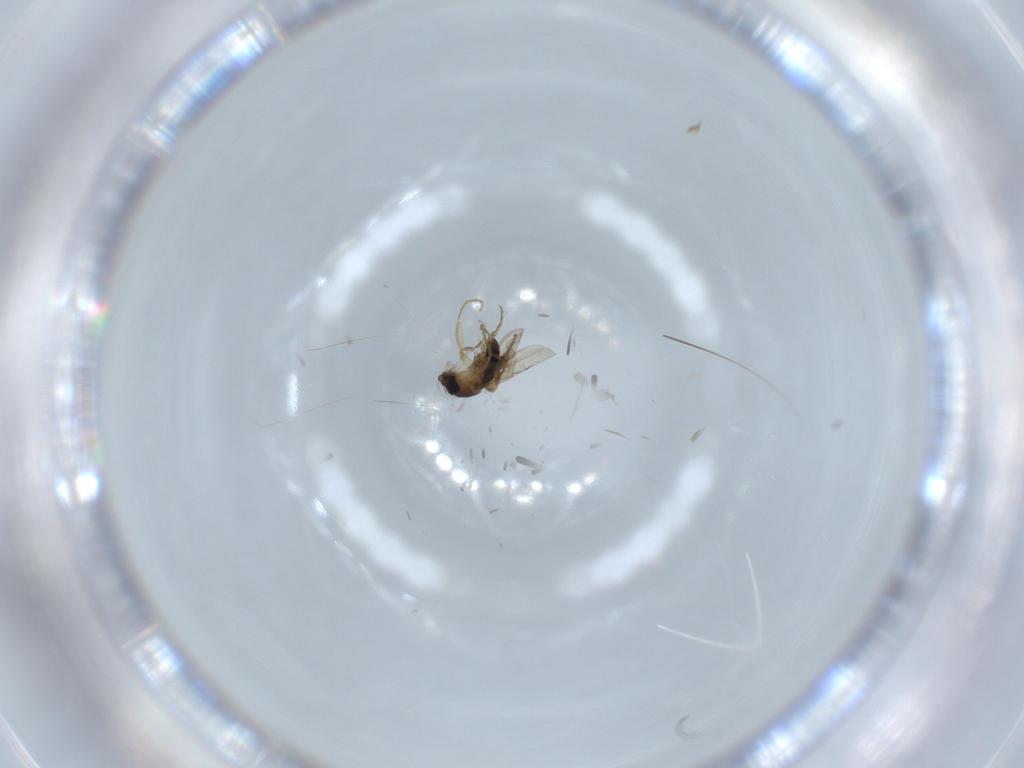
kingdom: Animalia
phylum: Arthropoda
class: Insecta
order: Diptera
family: Phoridae
